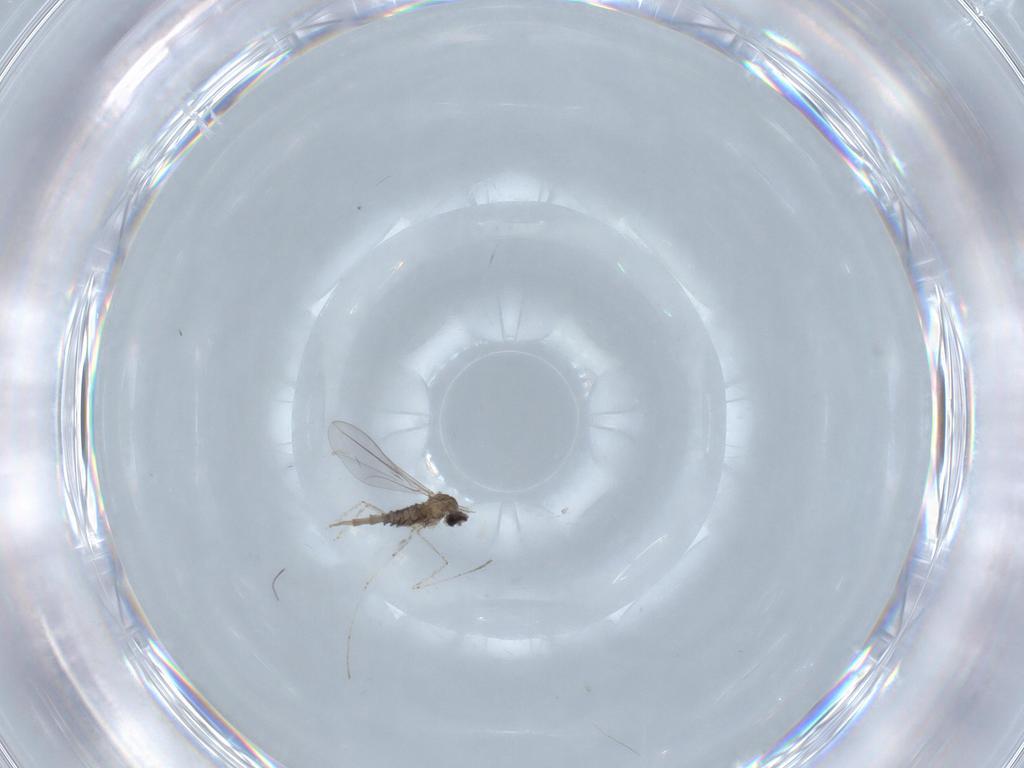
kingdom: Animalia
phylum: Arthropoda
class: Insecta
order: Diptera
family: Cecidomyiidae
